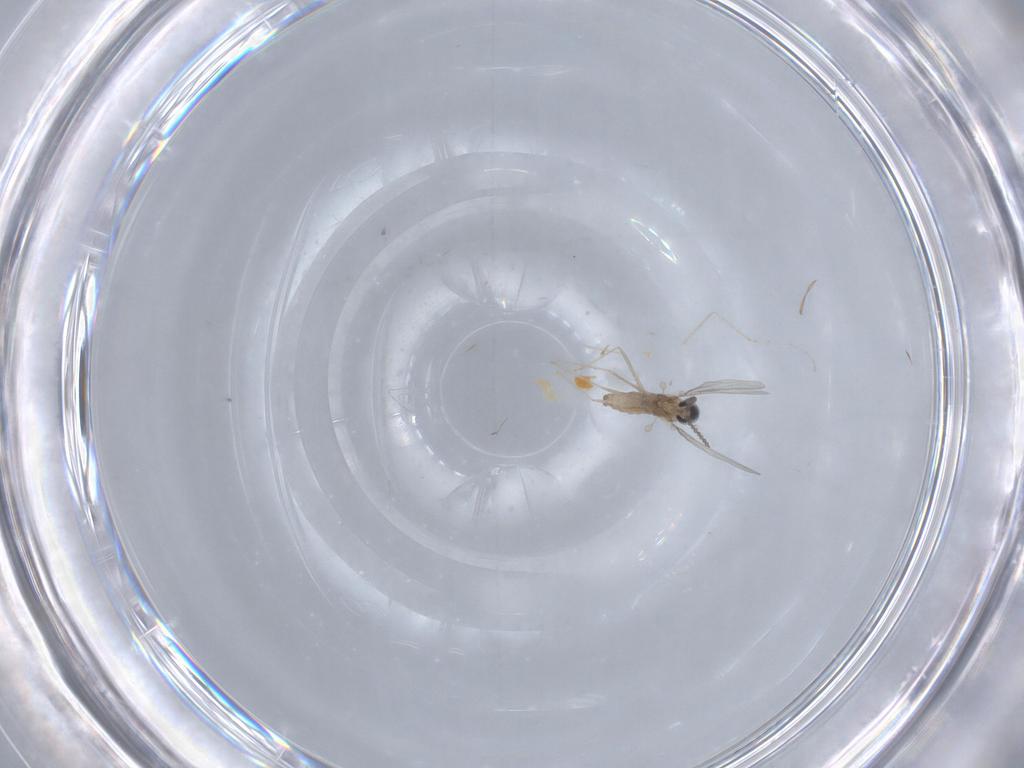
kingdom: Animalia
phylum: Arthropoda
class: Insecta
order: Diptera
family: Cecidomyiidae
